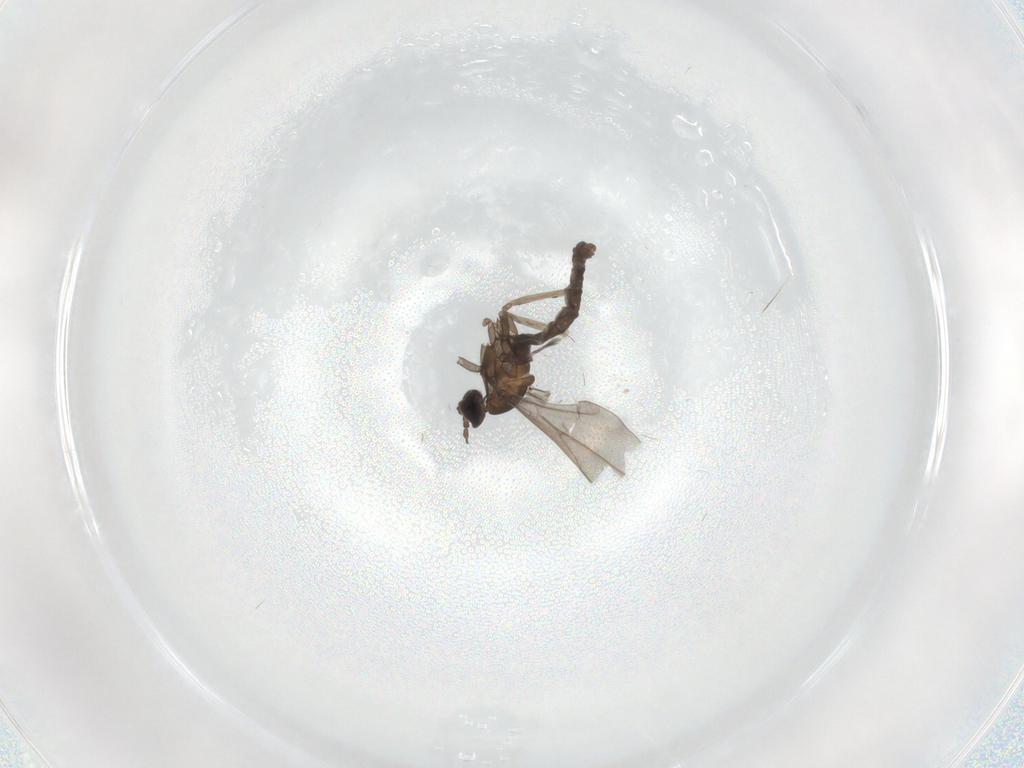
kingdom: Animalia
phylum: Arthropoda
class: Insecta
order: Diptera
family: Cecidomyiidae
